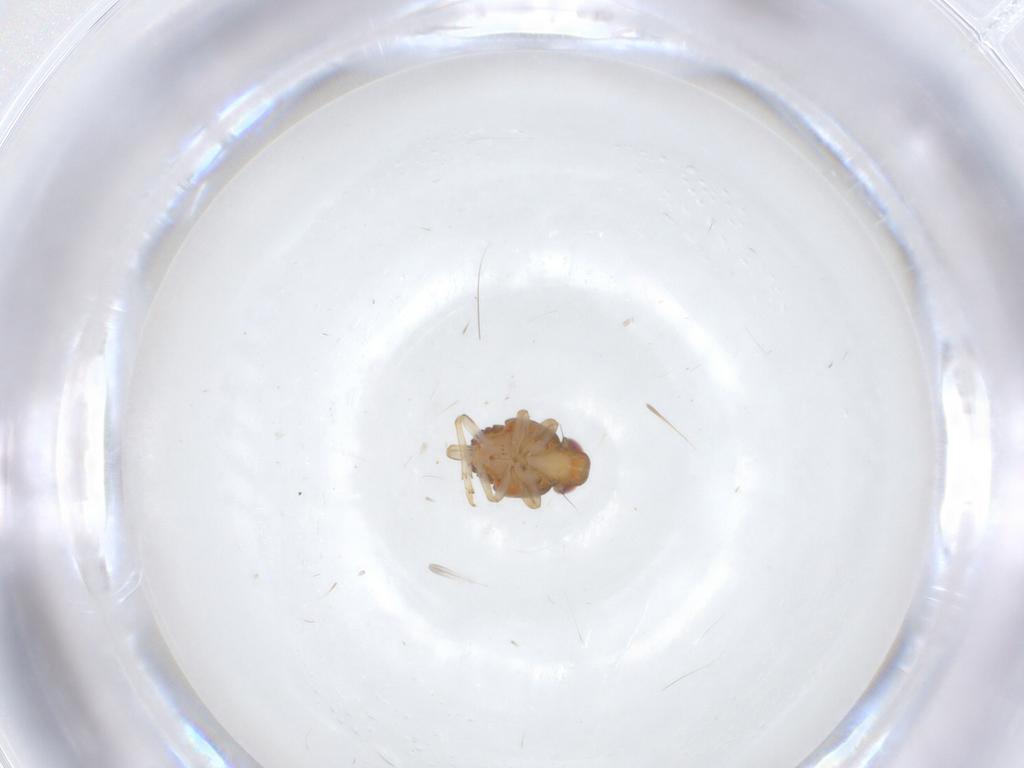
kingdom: Animalia
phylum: Arthropoda
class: Insecta
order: Hemiptera
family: Issidae
